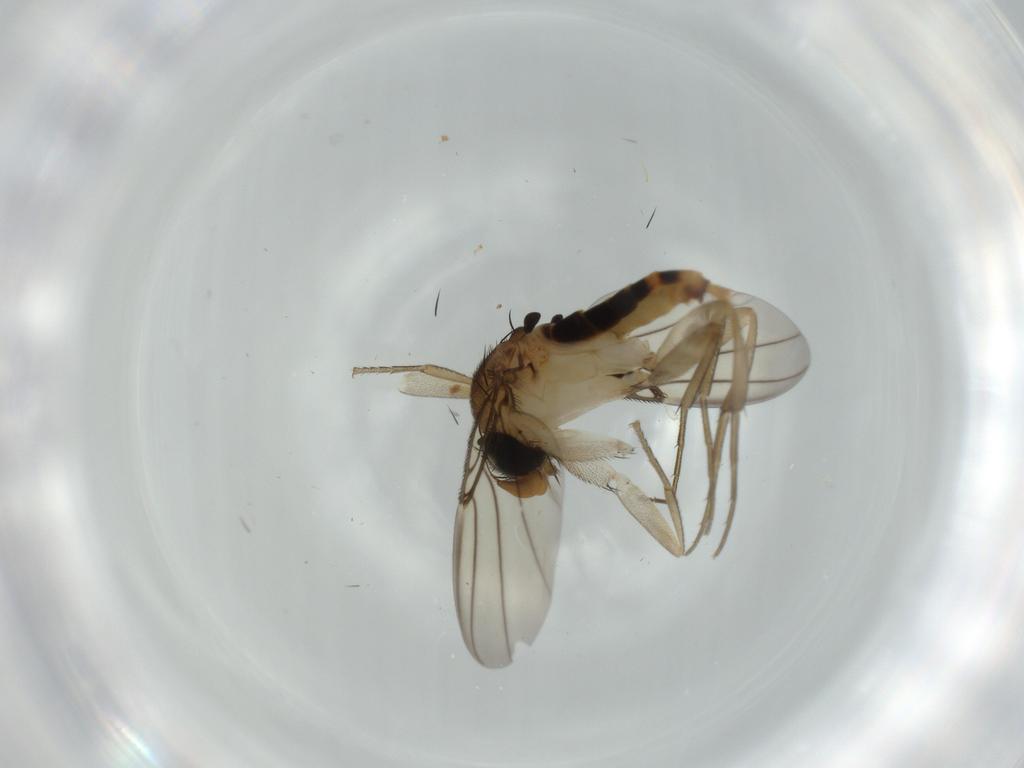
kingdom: Animalia
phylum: Arthropoda
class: Insecta
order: Diptera
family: Phoridae
